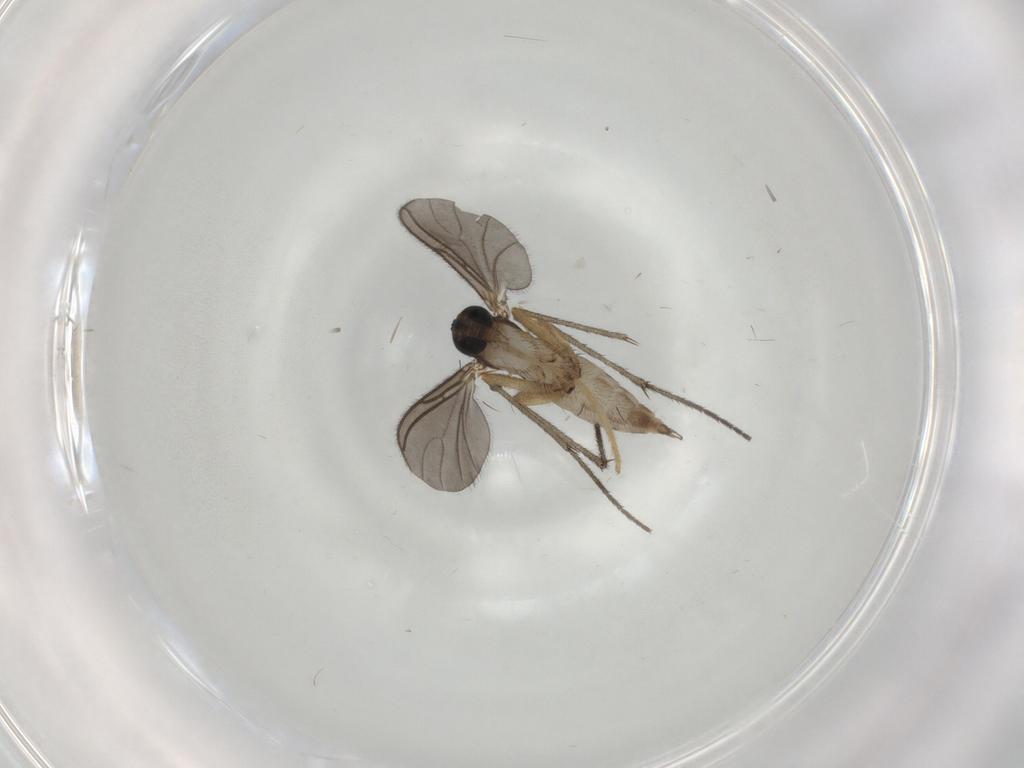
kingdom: Animalia
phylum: Arthropoda
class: Insecta
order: Diptera
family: Sciaridae
